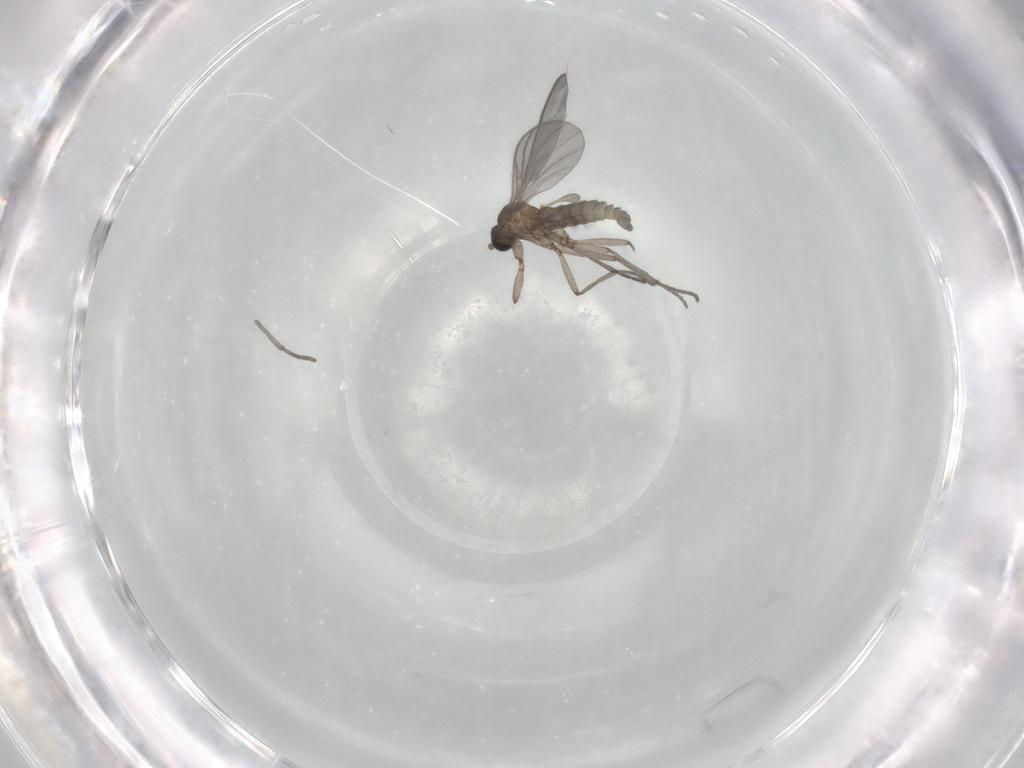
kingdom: Animalia
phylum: Arthropoda
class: Insecta
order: Diptera
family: Sciaridae
